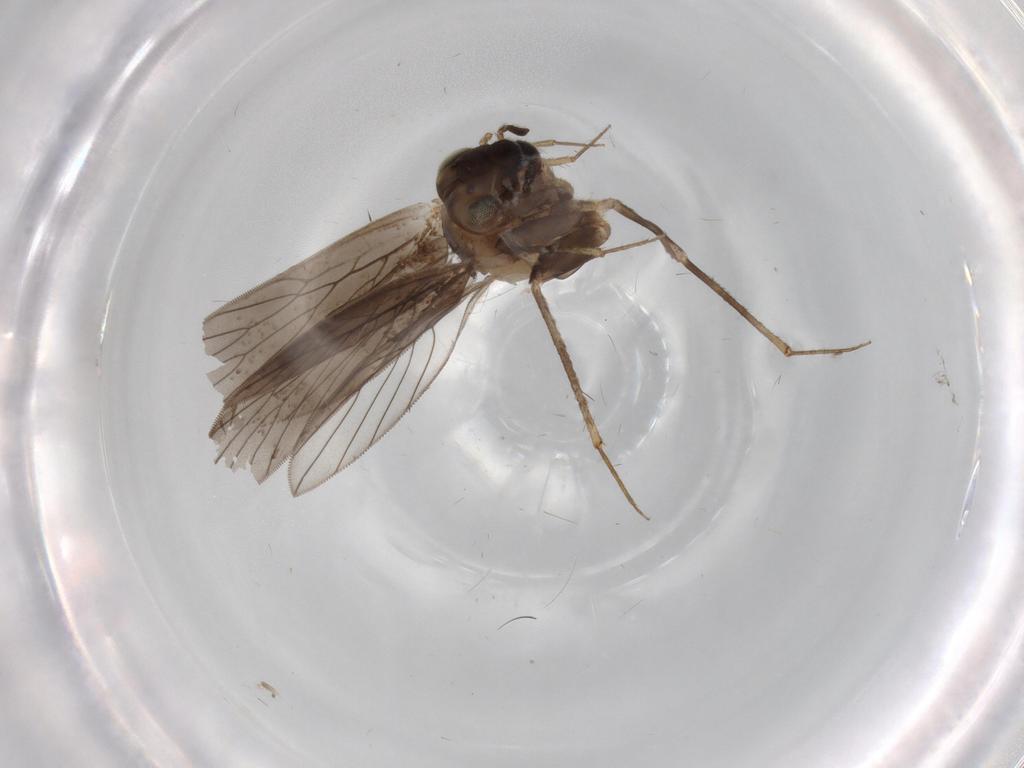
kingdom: Animalia
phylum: Arthropoda
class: Insecta
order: Psocodea
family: Lepidopsocidae
